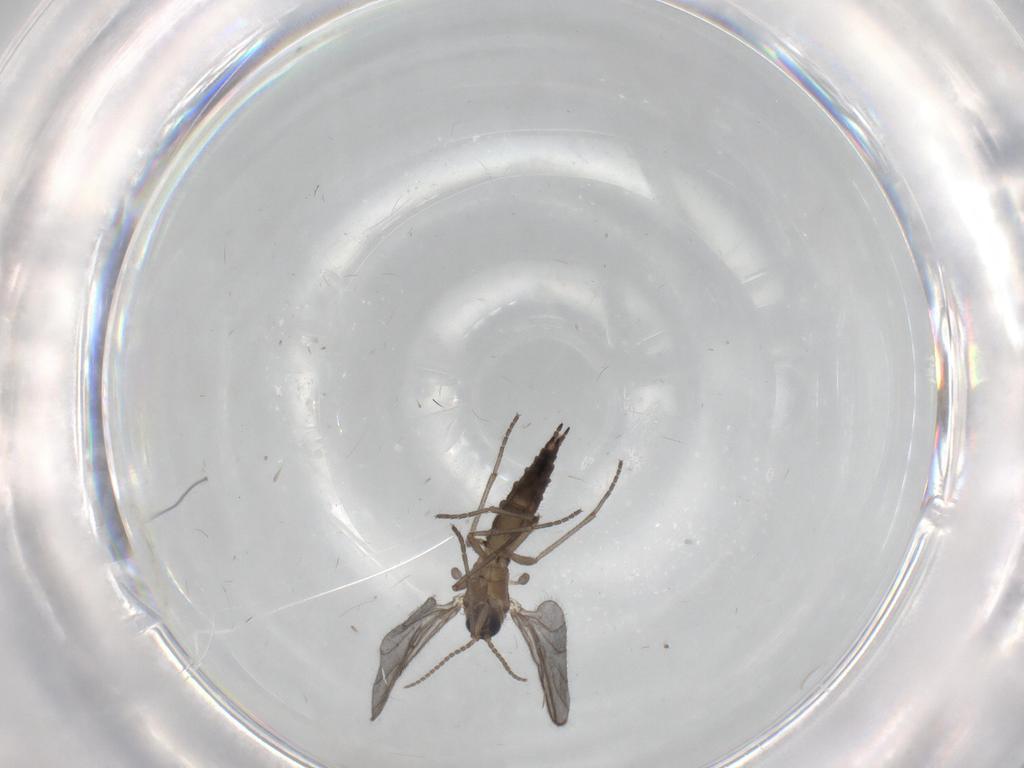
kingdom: Animalia
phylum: Arthropoda
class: Insecta
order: Diptera
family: Sciaridae
